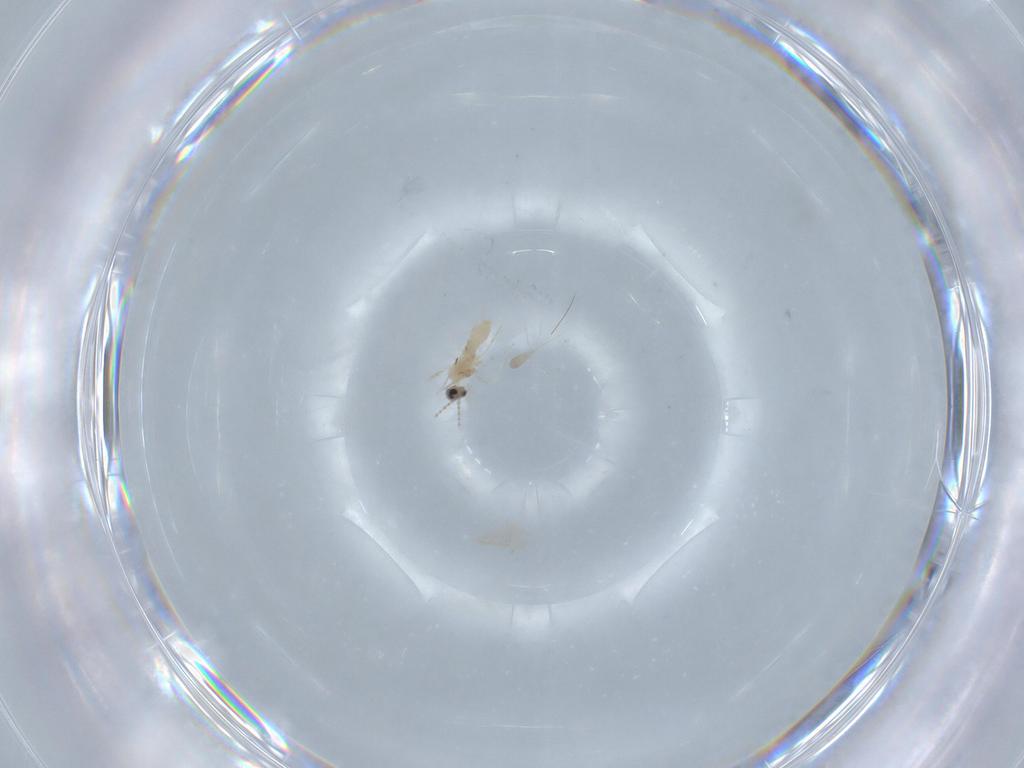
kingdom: Animalia
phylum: Arthropoda
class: Insecta
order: Diptera
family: Cecidomyiidae
